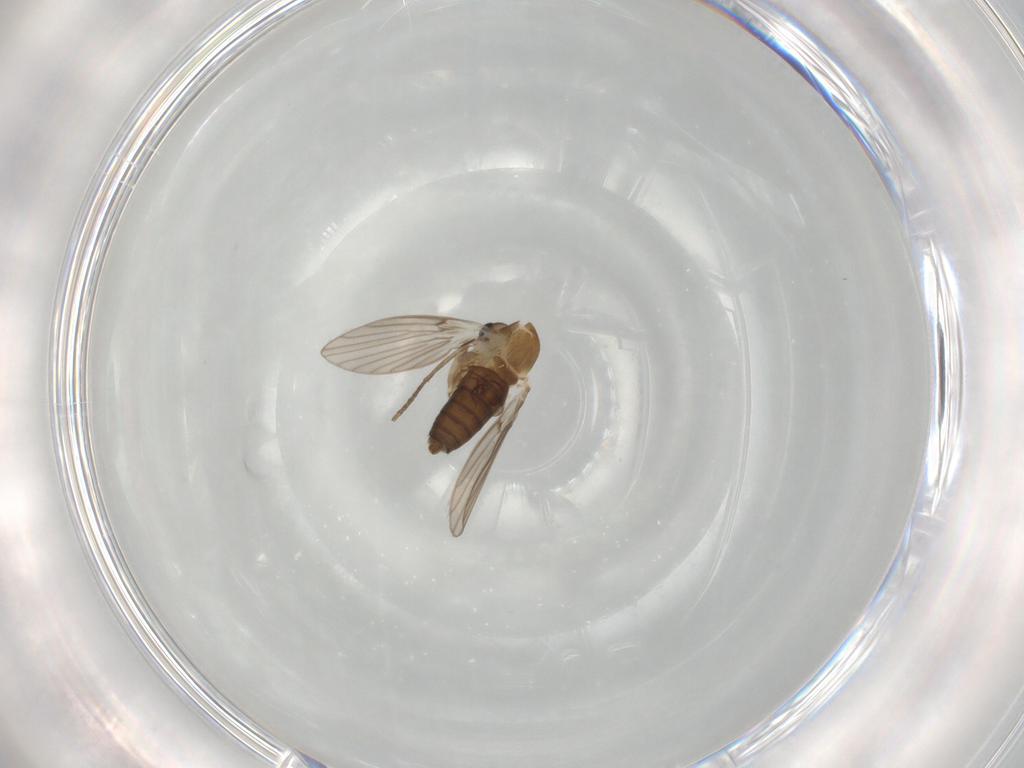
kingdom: Animalia
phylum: Arthropoda
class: Insecta
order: Diptera
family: Psychodidae
